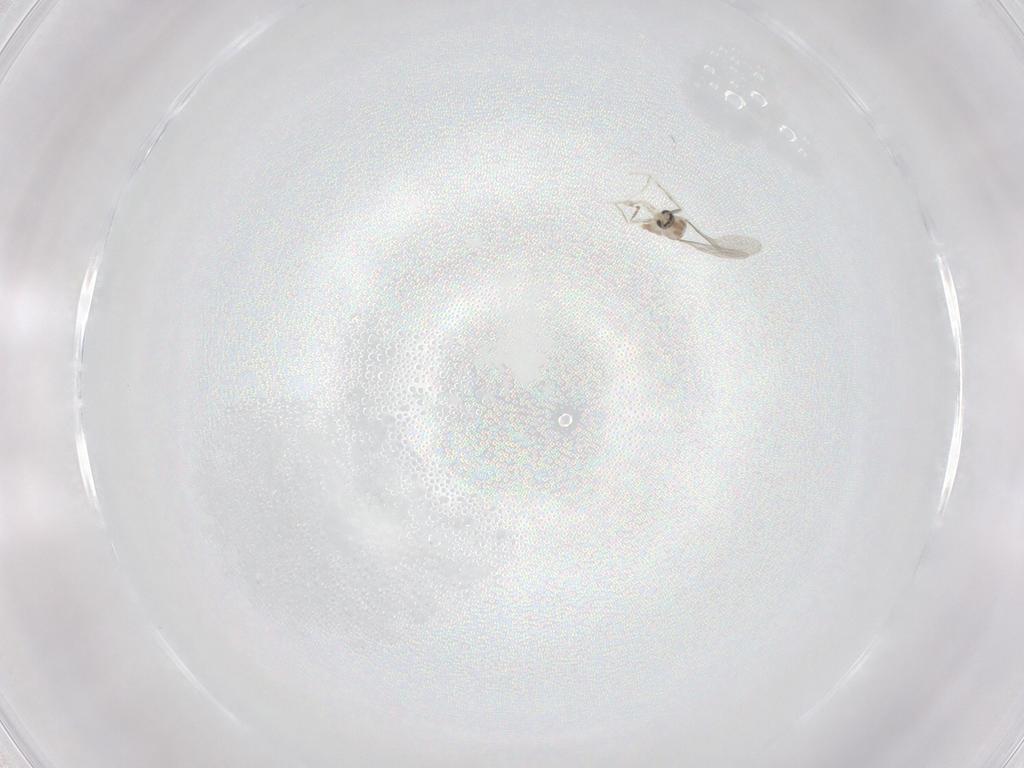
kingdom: Animalia
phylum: Arthropoda
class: Insecta
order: Diptera
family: Cecidomyiidae
